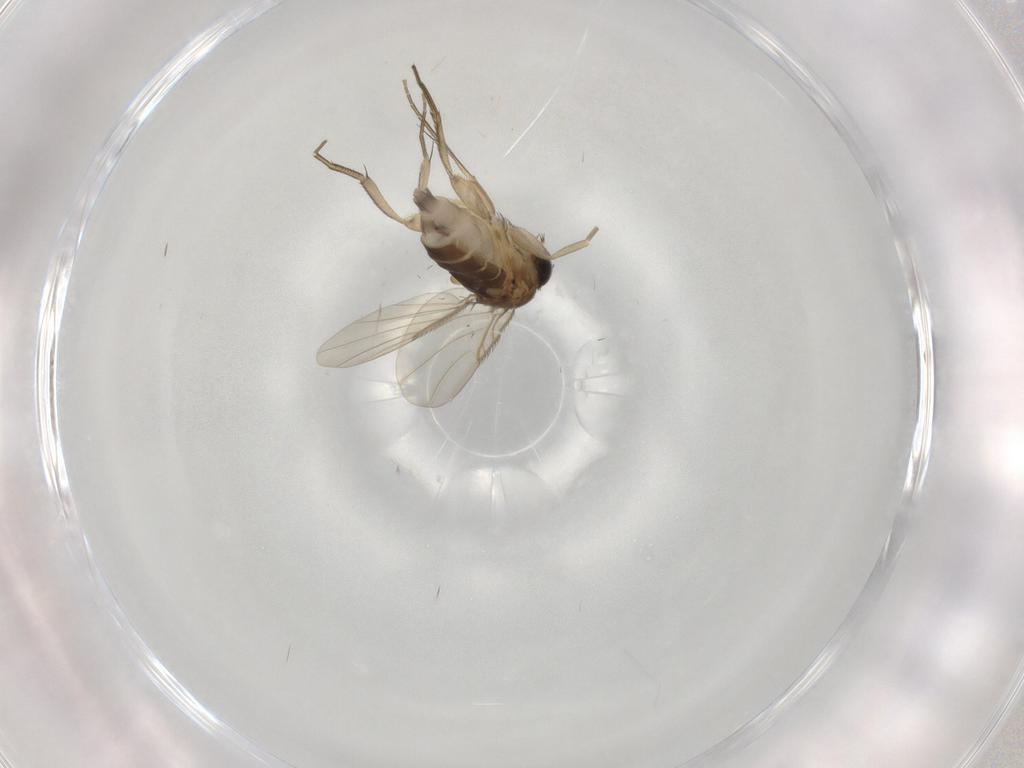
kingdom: Animalia
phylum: Arthropoda
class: Insecta
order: Diptera
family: Phoridae
